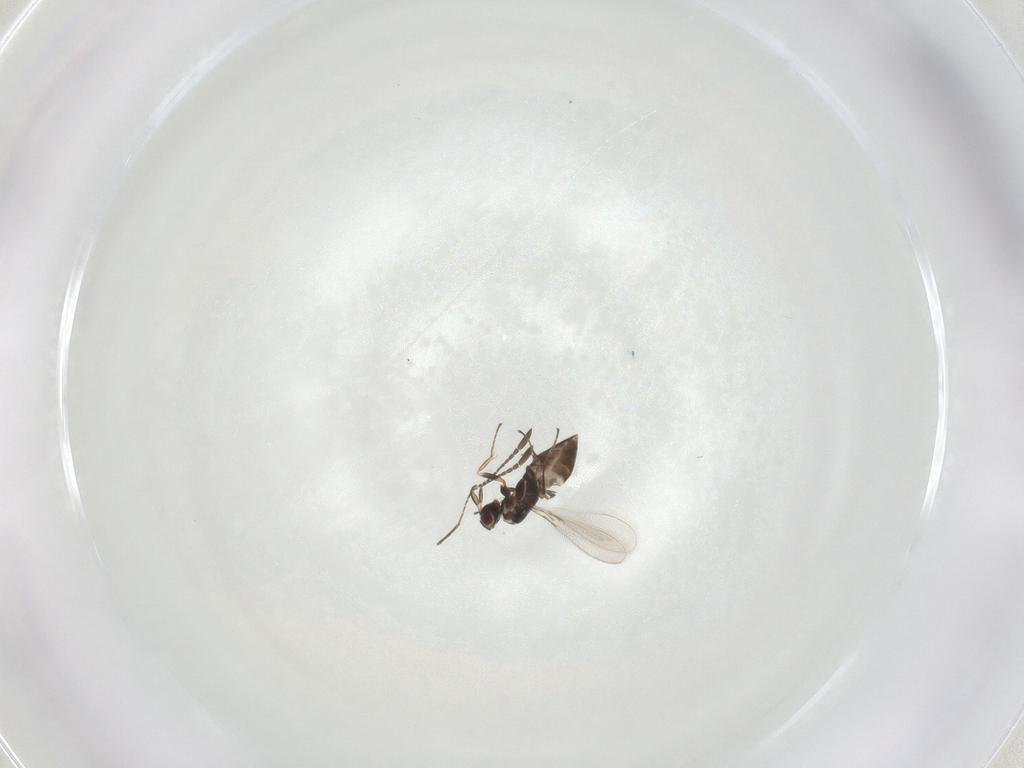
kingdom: Animalia
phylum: Arthropoda
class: Insecta
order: Hymenoptera
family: Mymaridae
